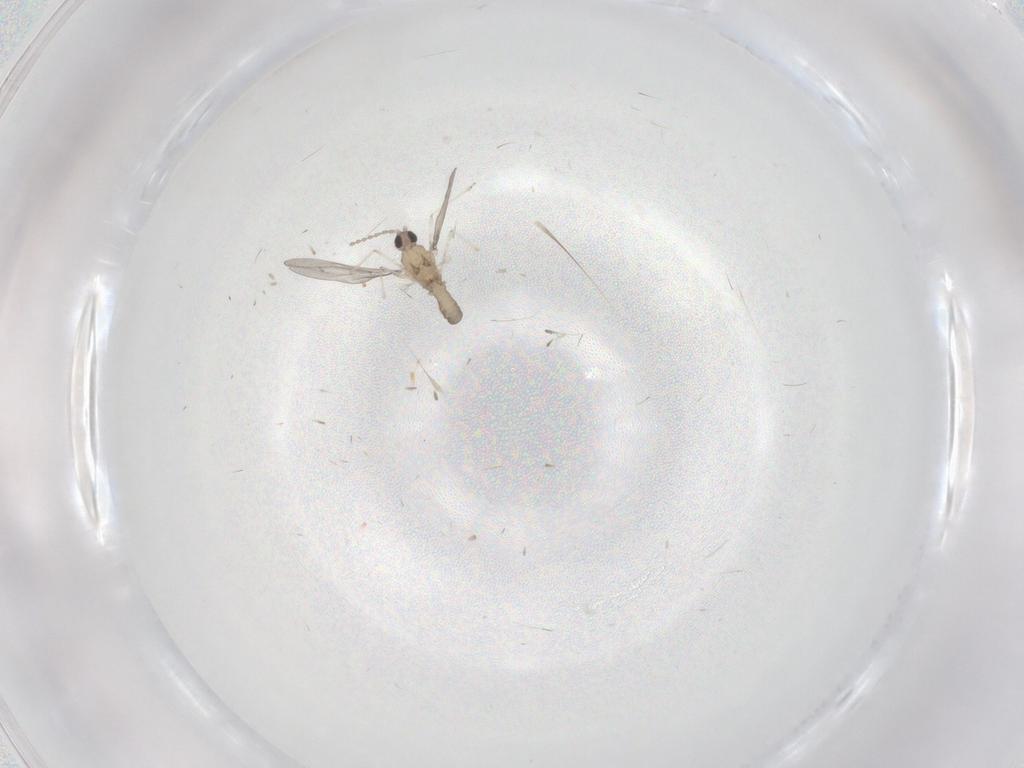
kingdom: Animalia
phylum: Arthropoda
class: Insecta
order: Diptera
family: Cecidomyiidae
